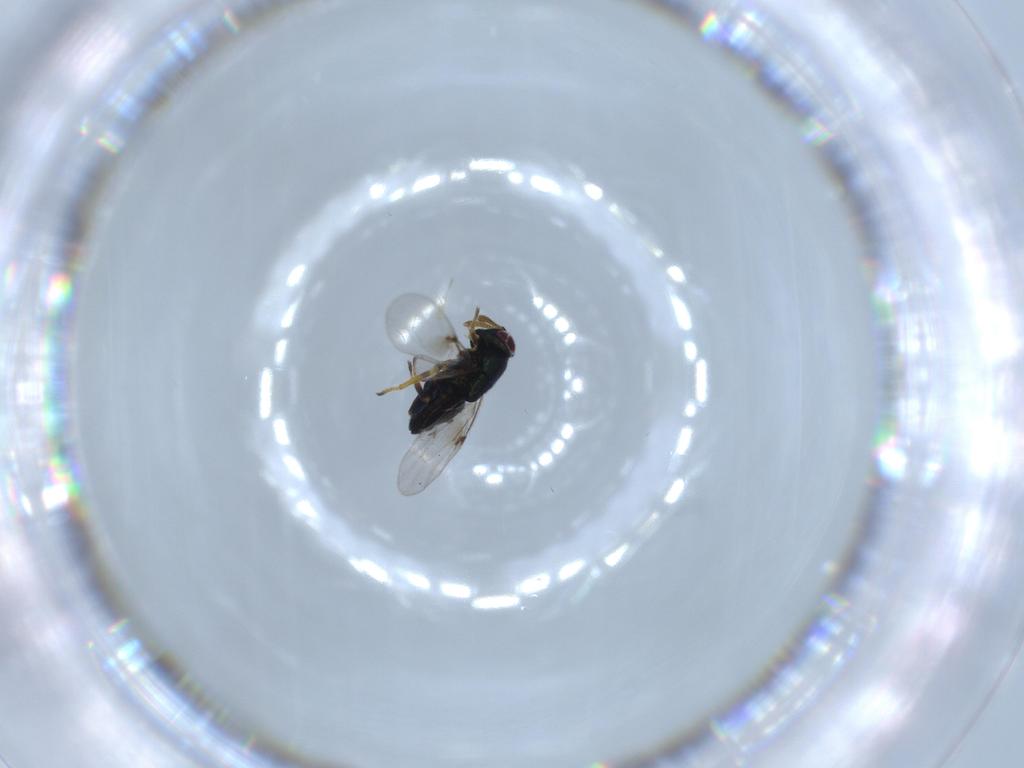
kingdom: Animalia
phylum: Arthropoda
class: Insecta
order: Hymenoptera
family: Encyrtidae
